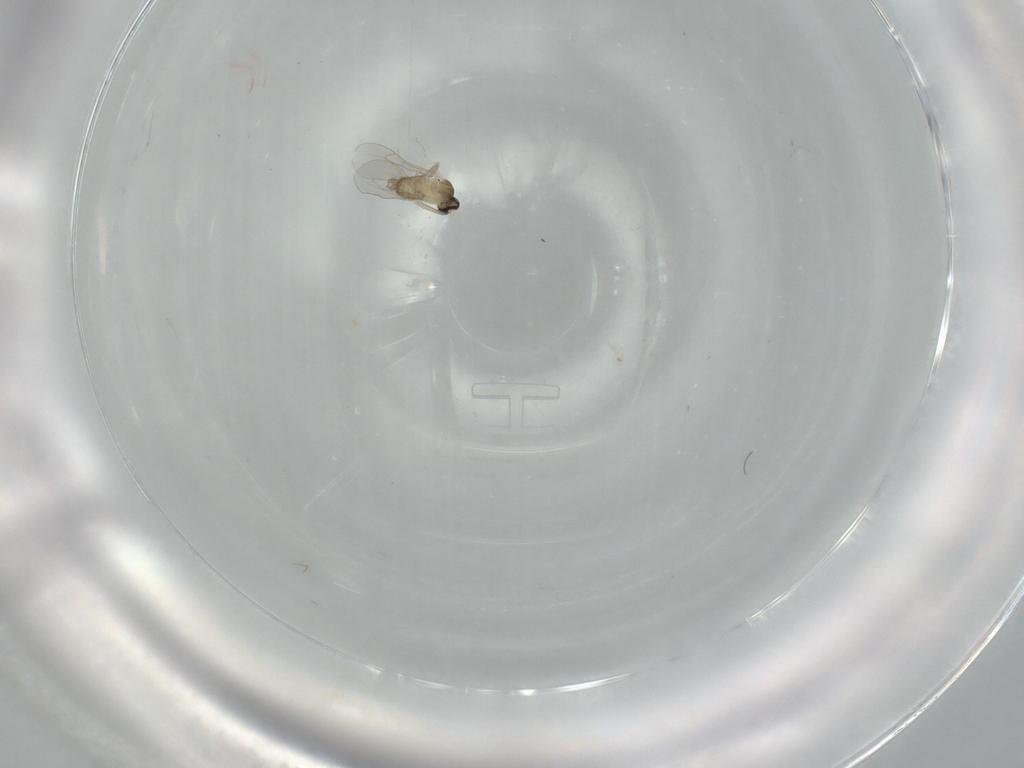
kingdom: Animalia
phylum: Arthropoda
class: Insecta
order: Diptera
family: Cecidomyiidae
